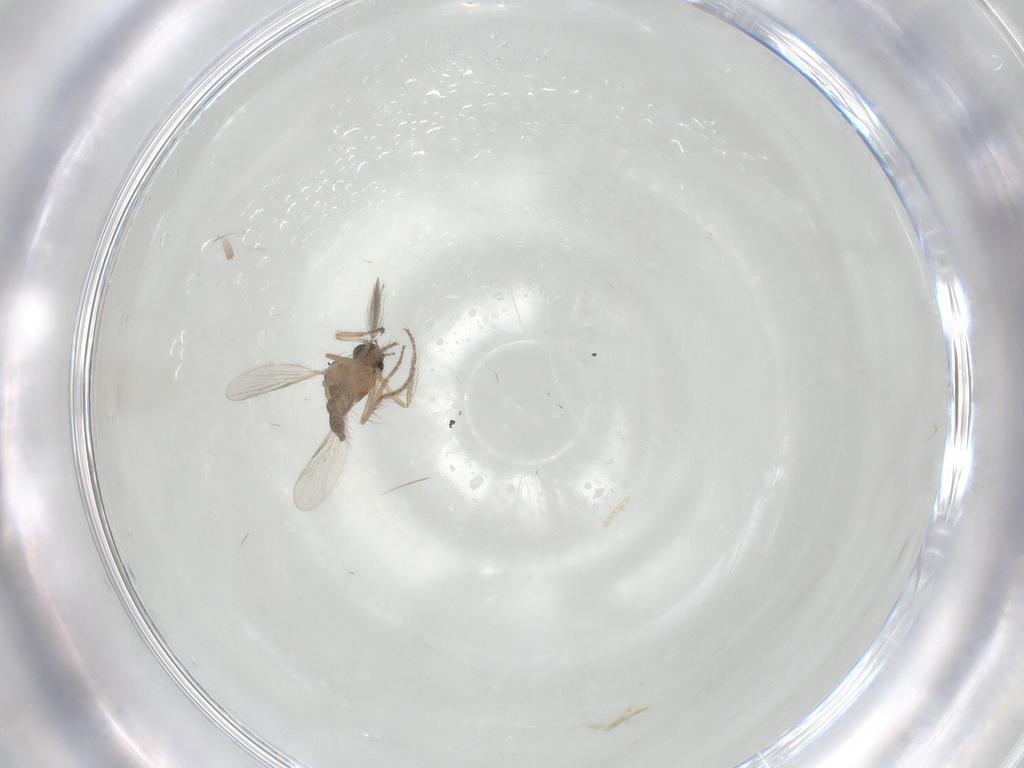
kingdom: Animalia
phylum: Arthropoda
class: Insecta
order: Diptera
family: Ceratopogonidae
